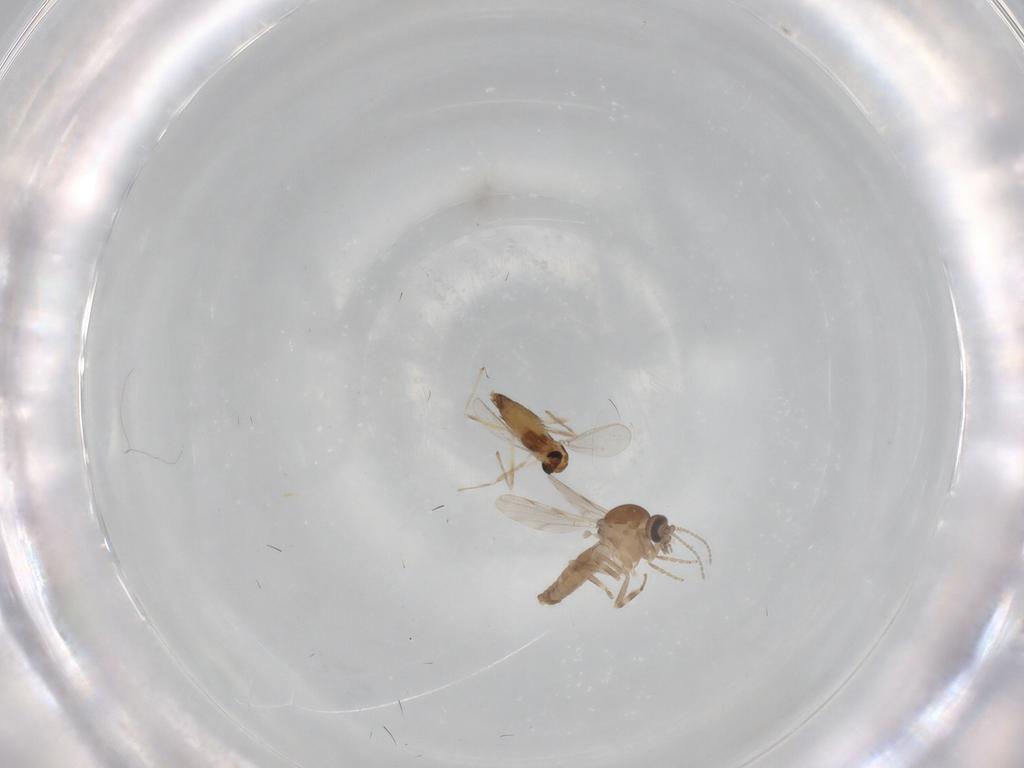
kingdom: Animalia
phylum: Arthropoda
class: Insecta
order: Diptera
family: Chironomidae
